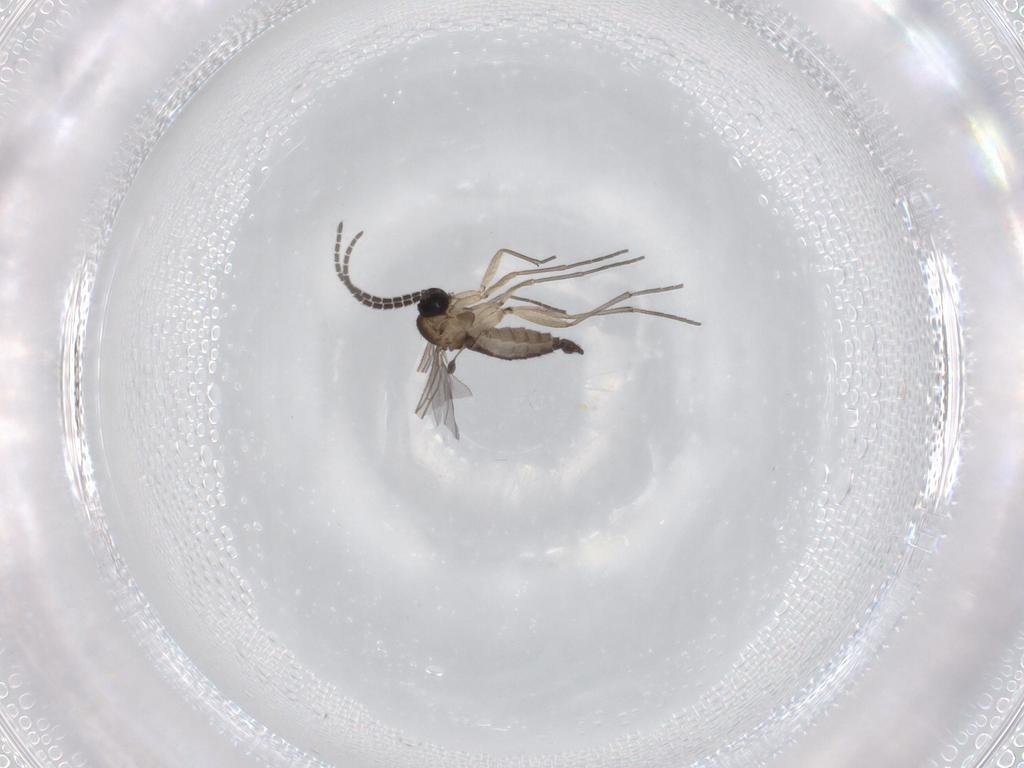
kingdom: Animalia
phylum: Arthropoda
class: Insecta
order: Diptera
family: Sciaridae
